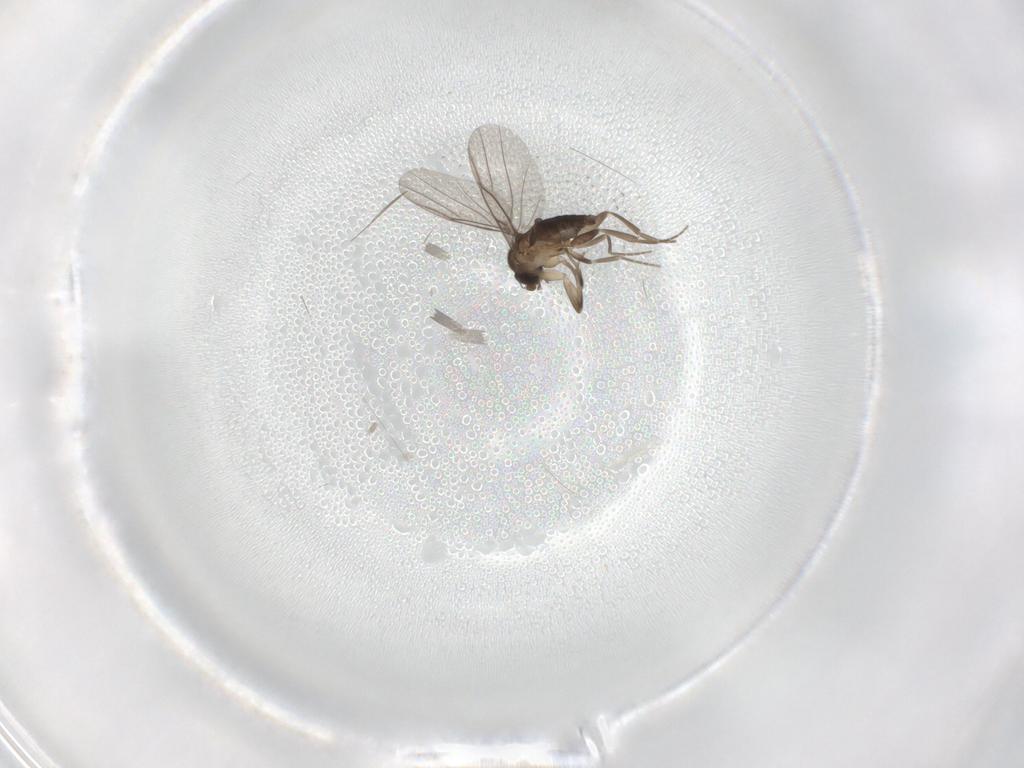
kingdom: Animalia
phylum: Arthropoda
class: Insecta
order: Diptera
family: Phoridae
